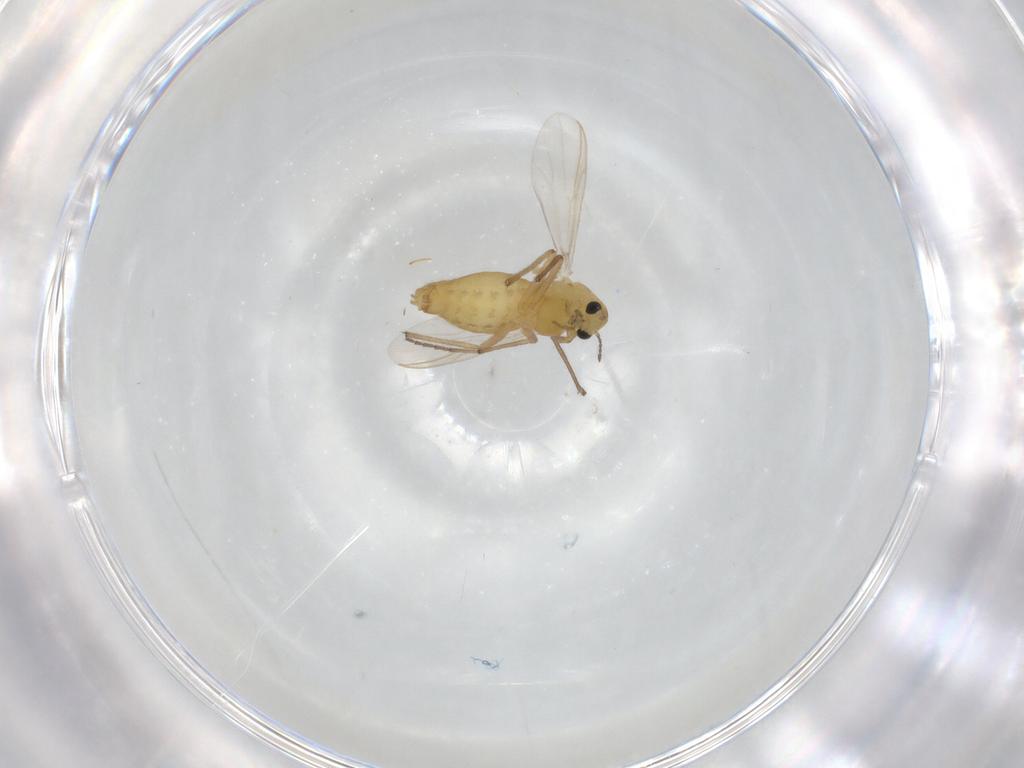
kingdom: Animalia
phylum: Arthropoda
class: Insecta
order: Diptera
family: Chironomidae
